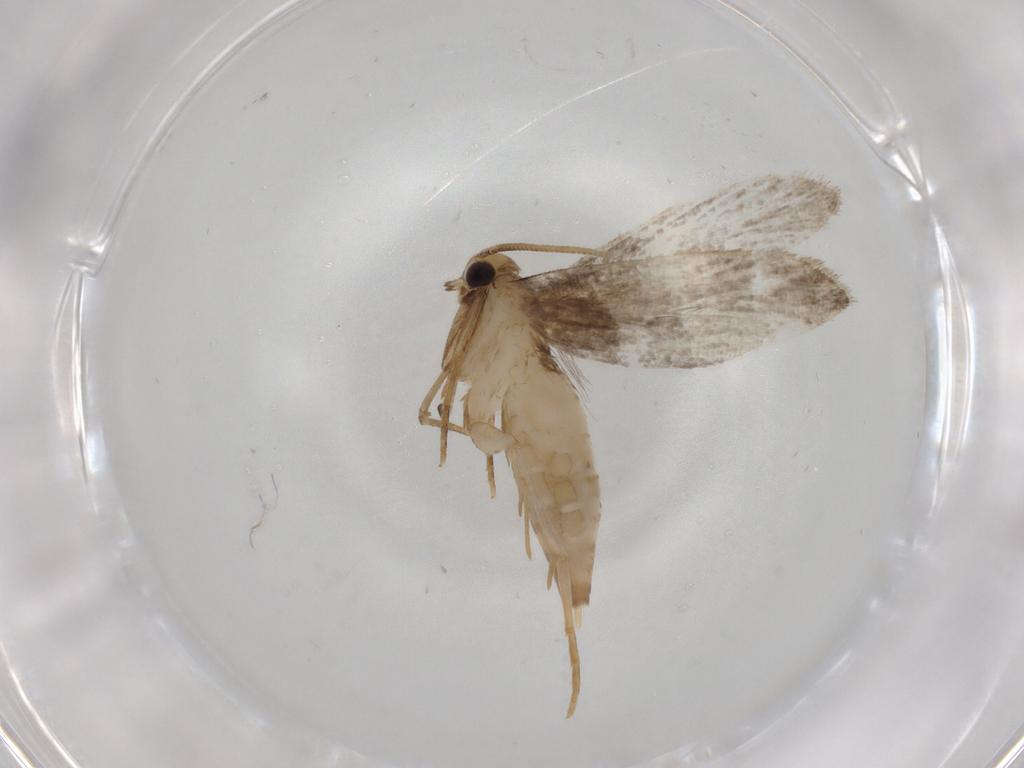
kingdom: Animalia
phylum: Arthropoda
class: Insecta
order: Lepidoptera
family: Tineidae
